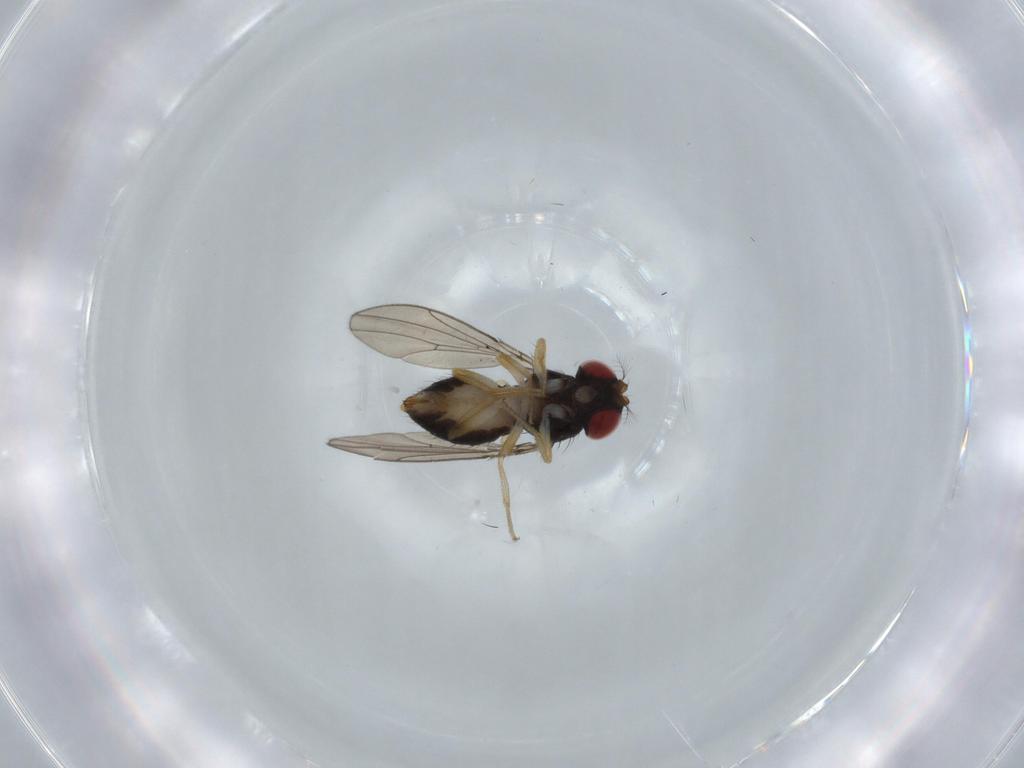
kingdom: Animalia
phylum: Arthropoda
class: Insecta
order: Diptera
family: Drosophilidae
